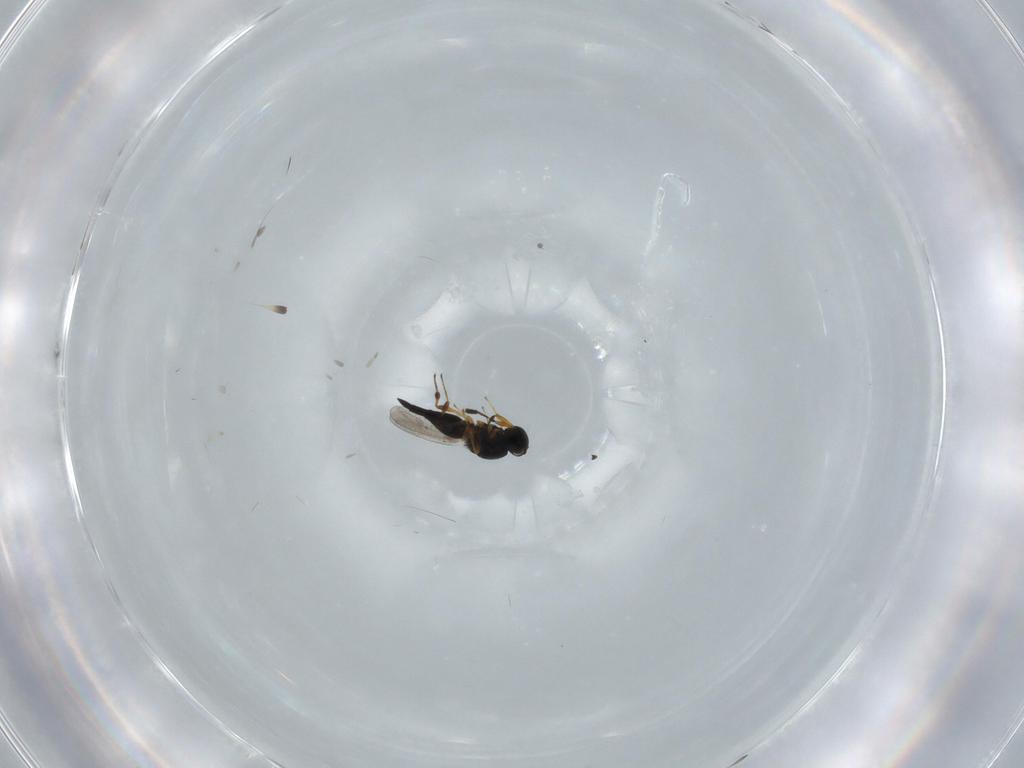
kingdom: Animalia
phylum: Arthropoda
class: Insecta
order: Hymenoptera
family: Platygastridae
